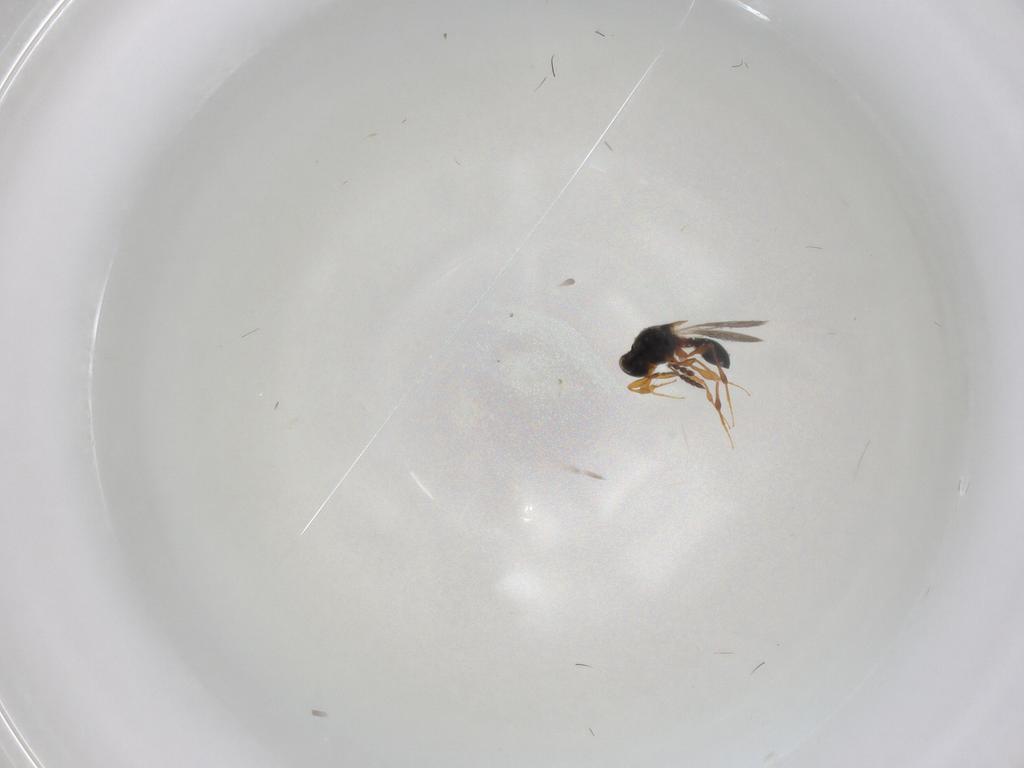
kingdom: Animalia
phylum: Arthropoda
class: Insecta
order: Hymenoptera
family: Platygastridae
